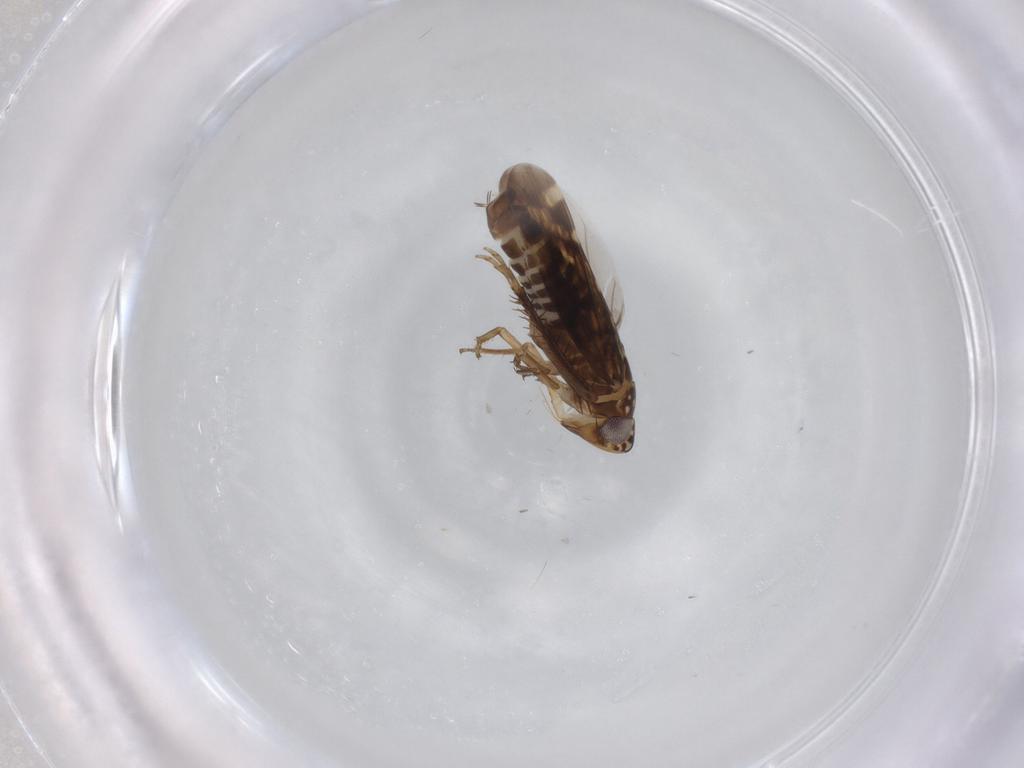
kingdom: Animalia
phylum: Arthropoda
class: Insecta
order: Hemiptera
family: Cicadellidae
